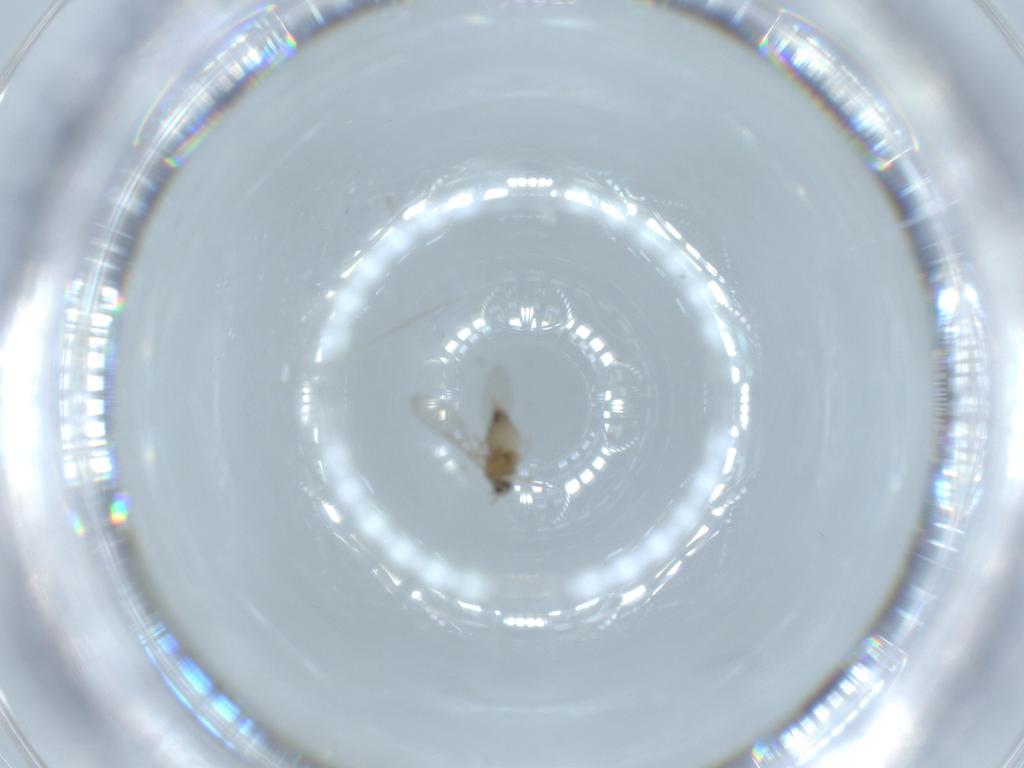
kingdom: Animalia
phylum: Arthropoda
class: Insecta
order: Diptera
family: Cecidomyiidae
